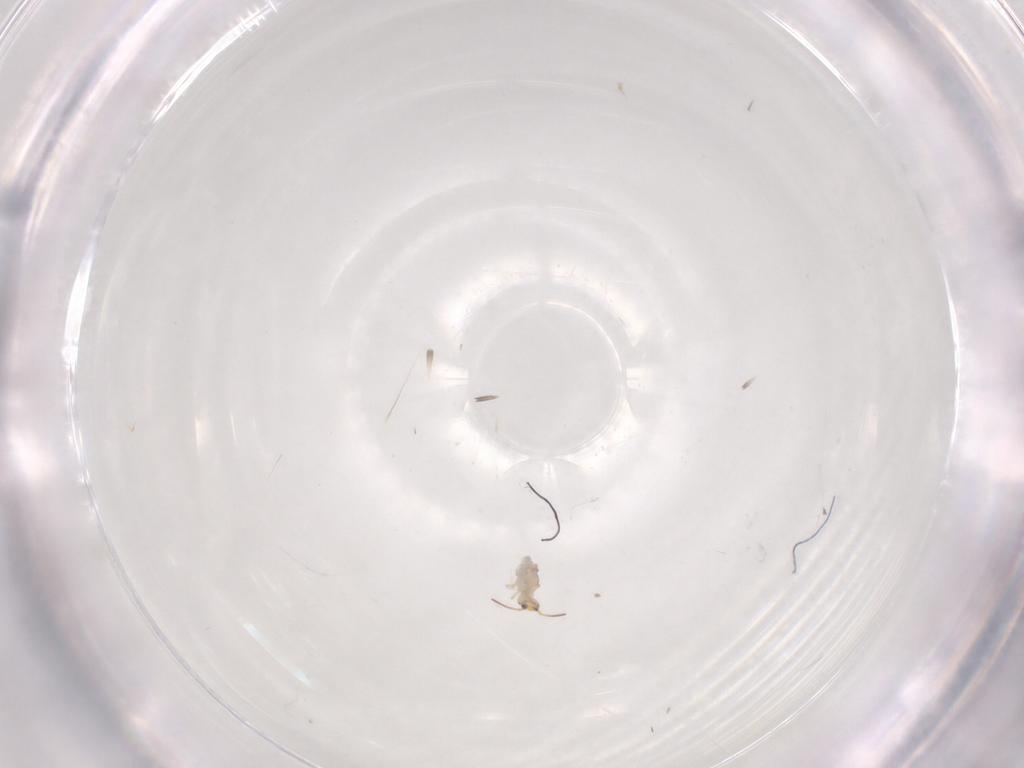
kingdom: Animalia
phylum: Arthropoda
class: Collembola
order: Symphypleona
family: Bourletiellidae
